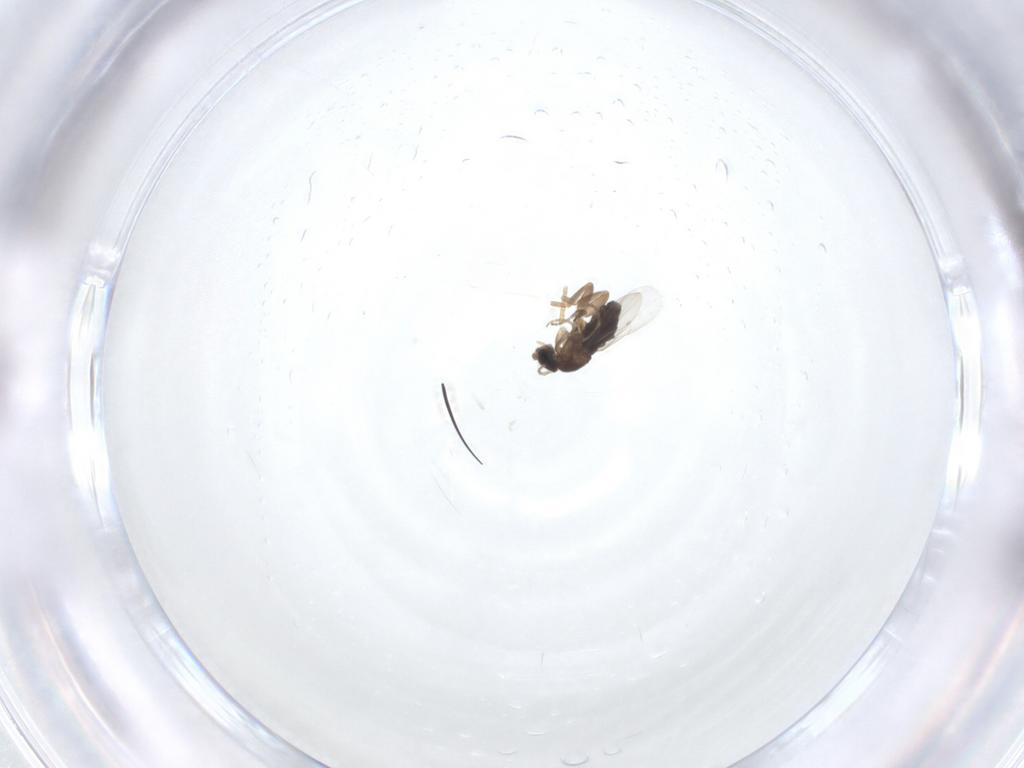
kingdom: Animalia
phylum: Arthropoda
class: Insecta
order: Diptera
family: Phoridae
